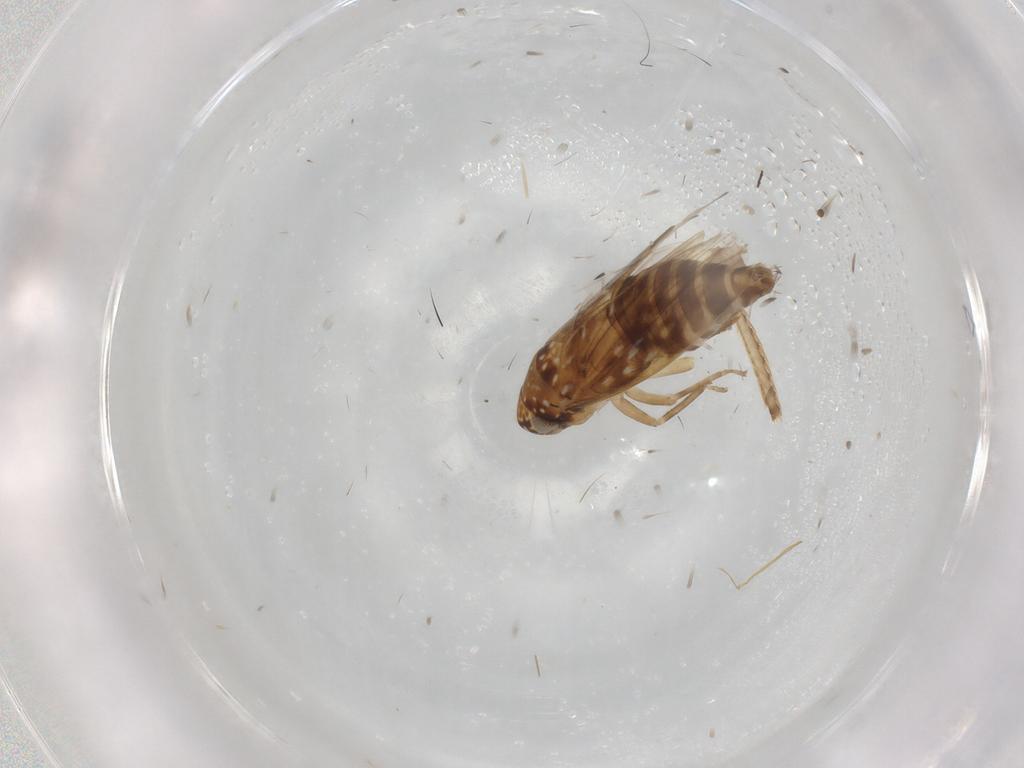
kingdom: Animalia
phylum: Arthropoda
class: Insecta
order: Hemiptera
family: Cicadellidae
